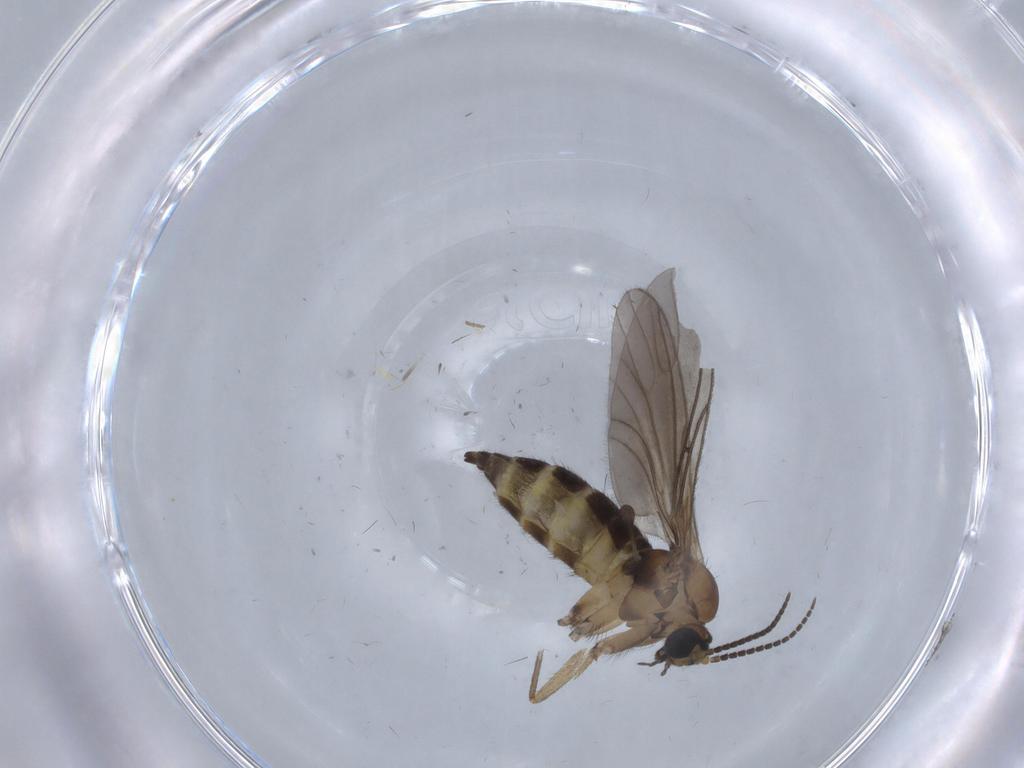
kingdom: Animalia
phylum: Arthropoda
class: Insecta
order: Diptera
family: Sciaridae
